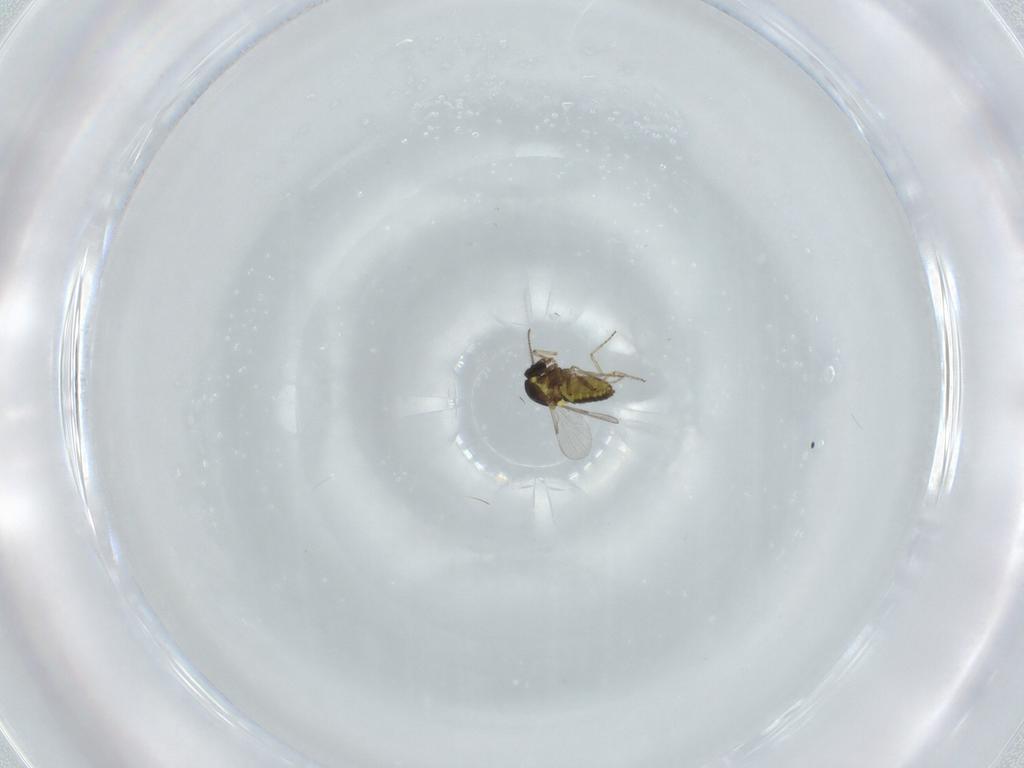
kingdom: Animalia
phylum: Arthropoda
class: Insecta
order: Diptera
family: Ceratopogonidae
